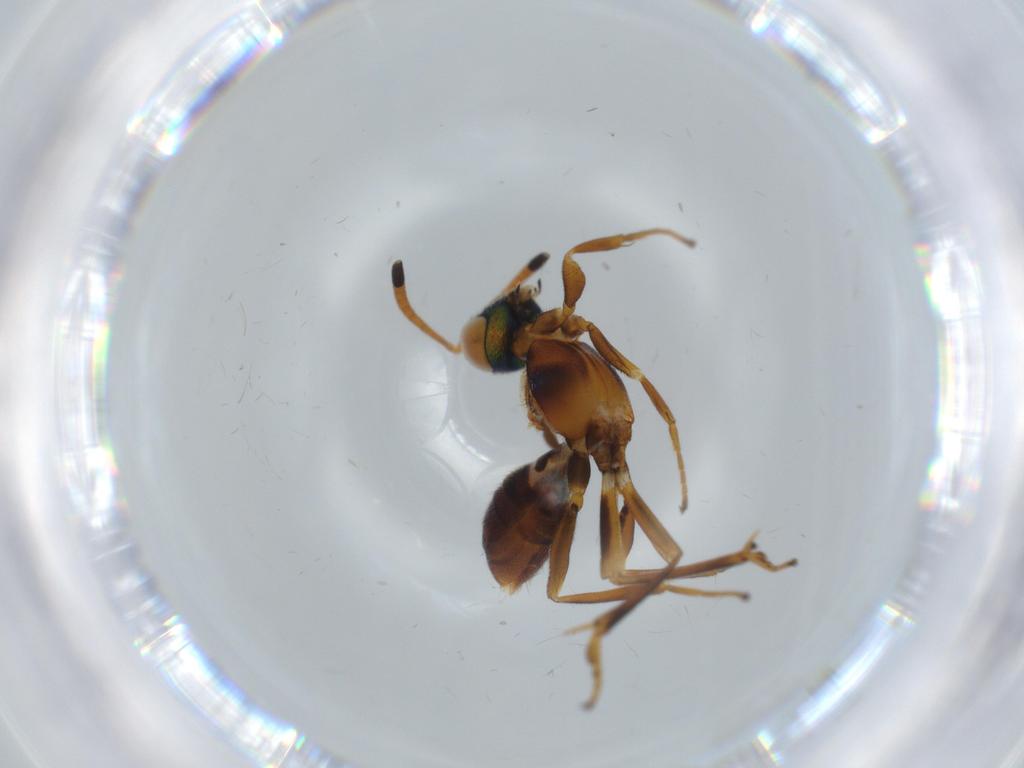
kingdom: Animalia
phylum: Arthropoda
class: Insecta
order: Hymenoptera
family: Scelionidae
